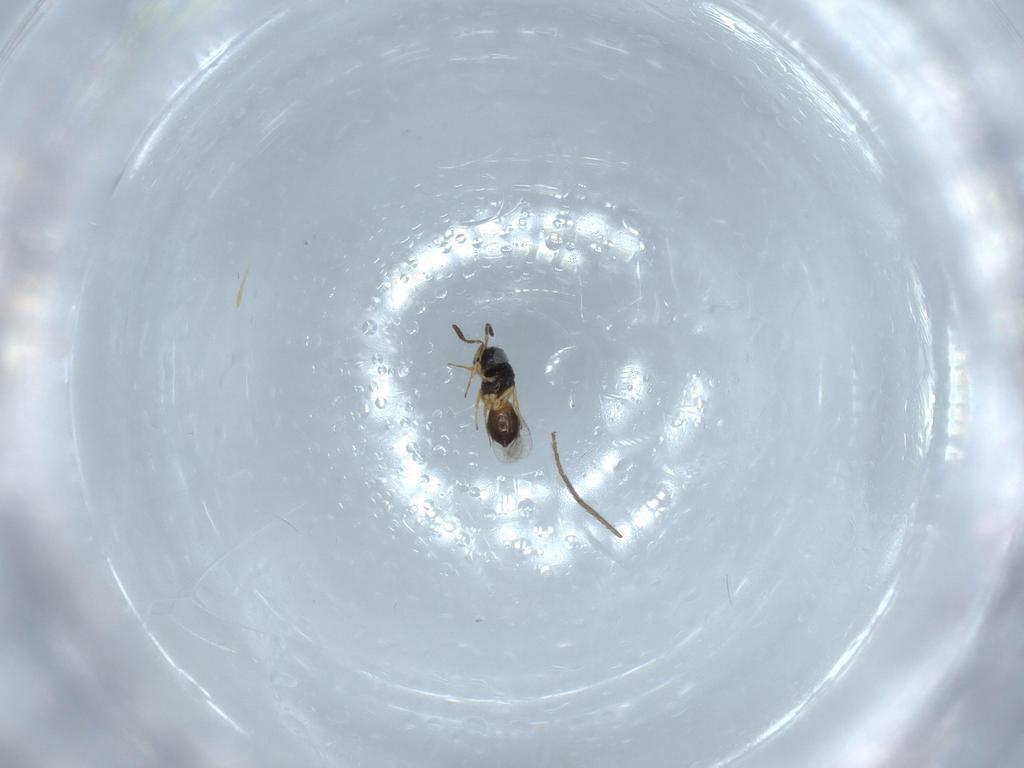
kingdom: Animalia
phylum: Arthropoda
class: Insecta
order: Hymenoptera
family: Scelionidae
